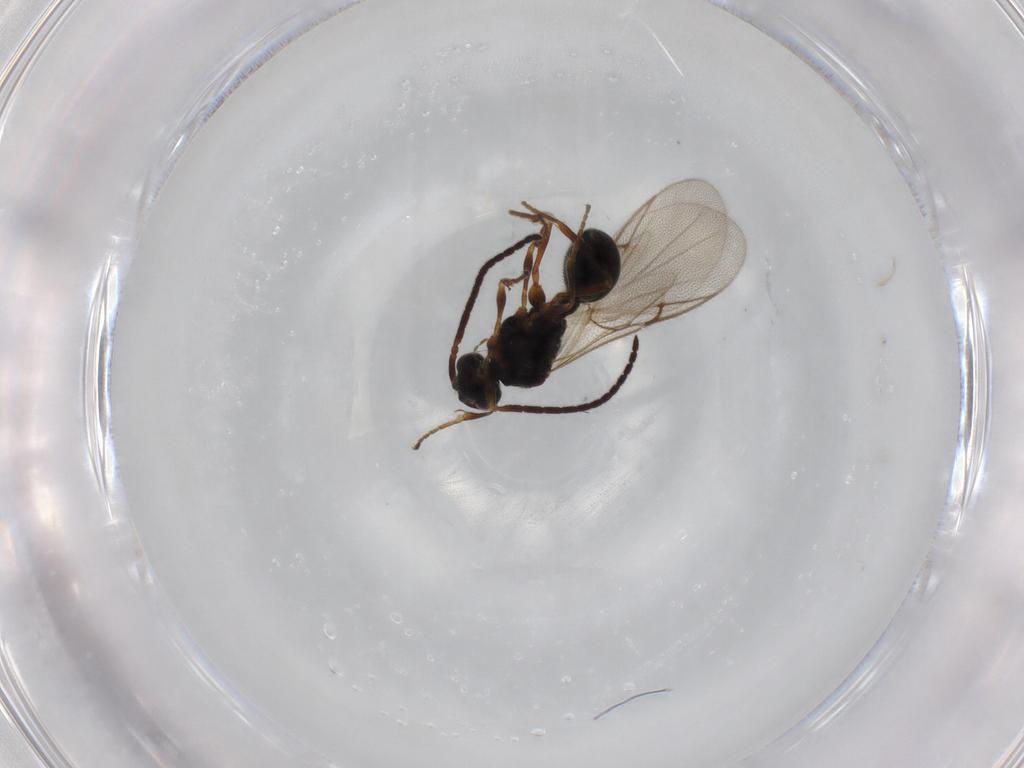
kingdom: Animalia
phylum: Arthropoda
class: Insecta
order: Hymenoptera
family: Diapriidae
